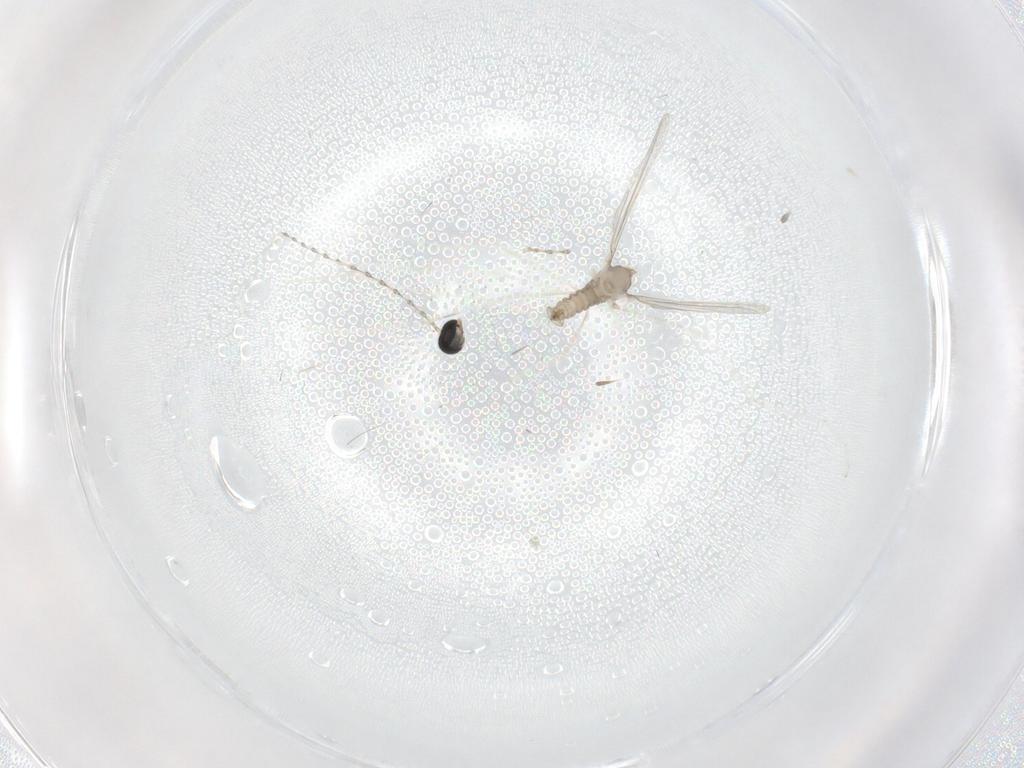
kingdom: Animalia
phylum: Arthropoda
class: Insecta
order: Diptera
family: Cecidomyiidae
